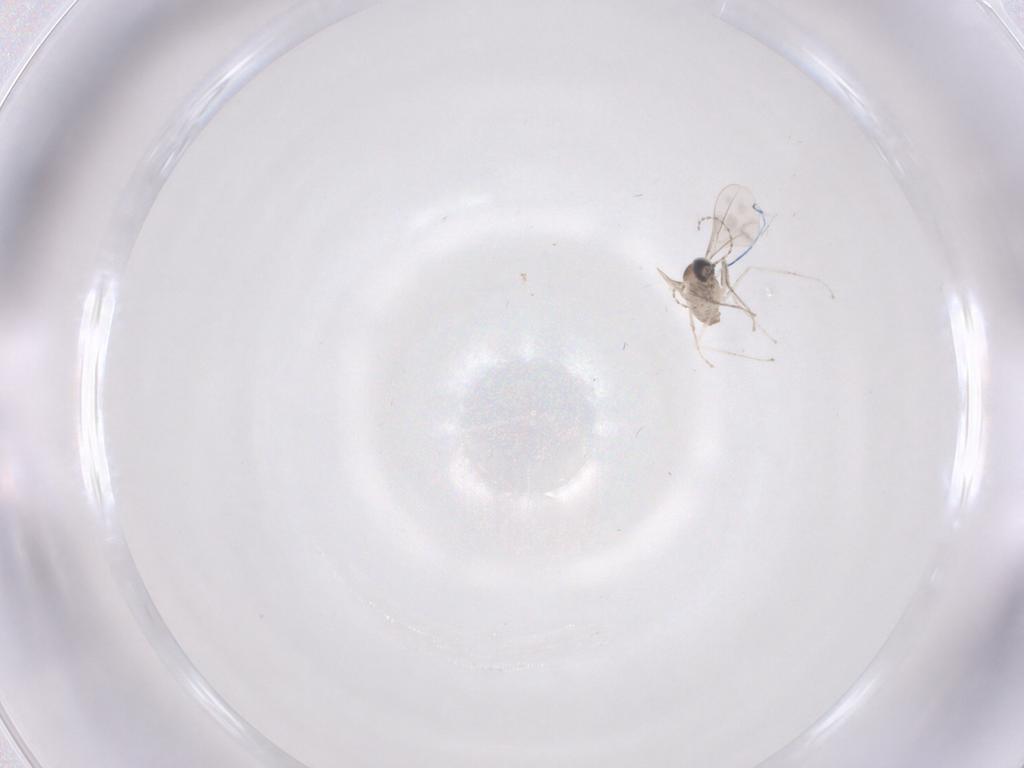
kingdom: Animalia
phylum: Arthropoda
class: Insecta
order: Diptera
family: Cecidomyiidae
